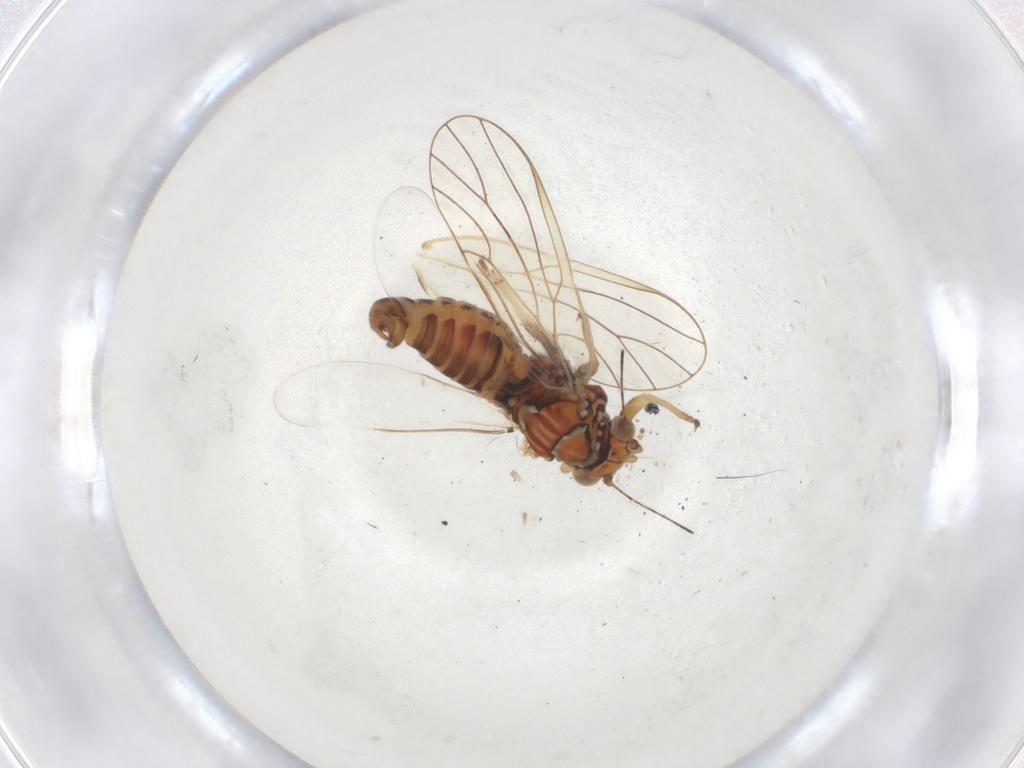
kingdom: Animalia
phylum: Arthropoda
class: Insecta
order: Hemiptera
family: Psyllidae
